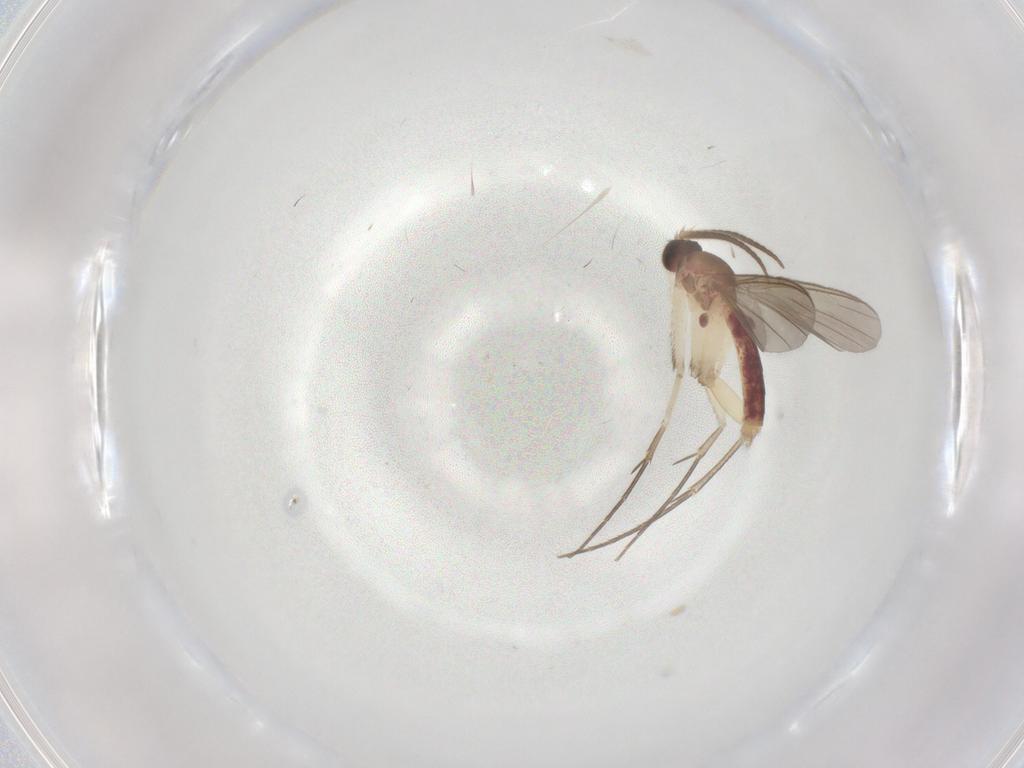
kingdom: Animalia
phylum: Arthropoda
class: Insecta
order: Diptera
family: Mycetophilidae
